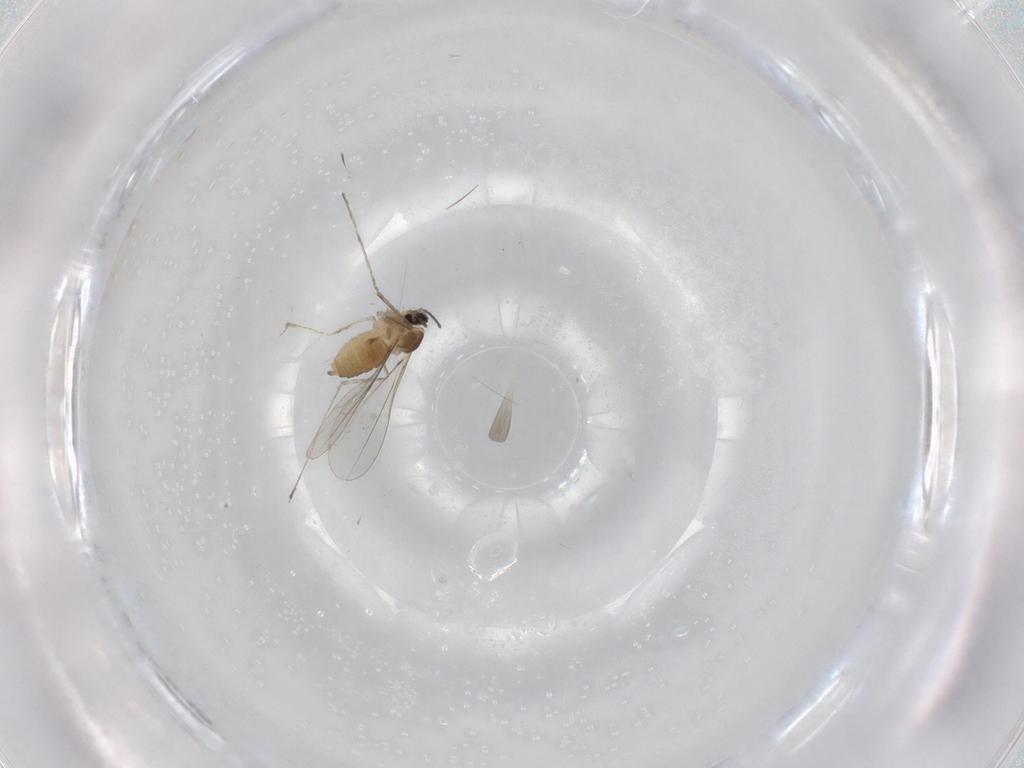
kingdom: Animalia
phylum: Arthropoda
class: Insecta
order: Diptera
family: Cecidomyiidae
